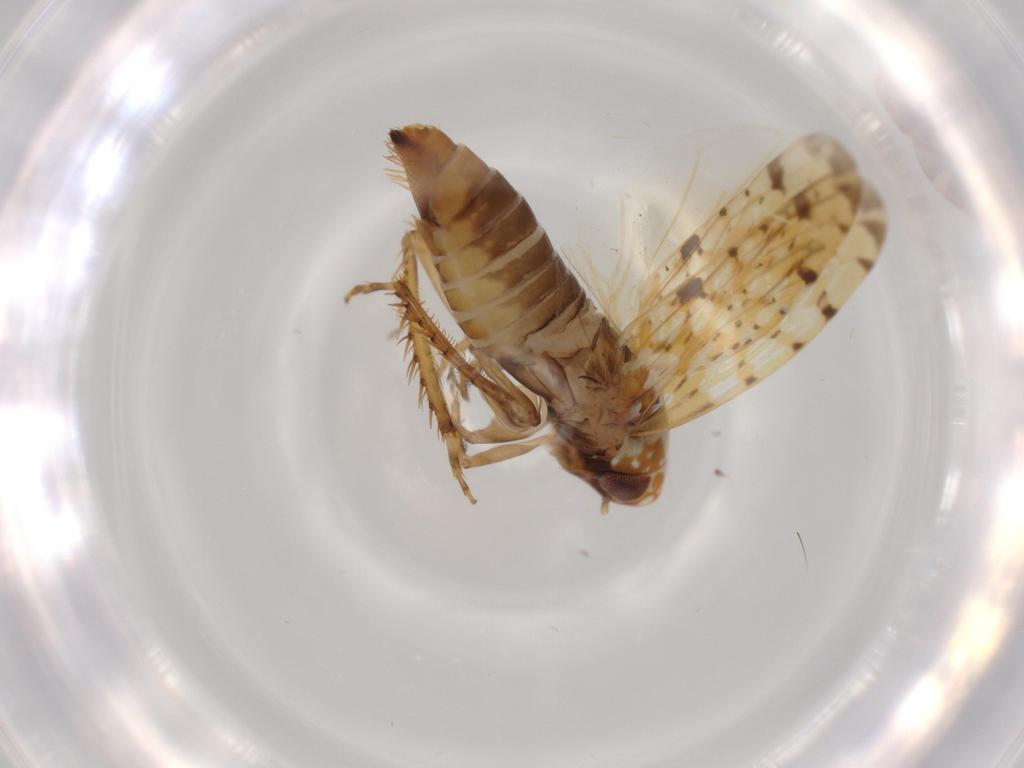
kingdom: Animalia
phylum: Arthropoda
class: Insecta
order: Hemiptera
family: Cicadellidae
